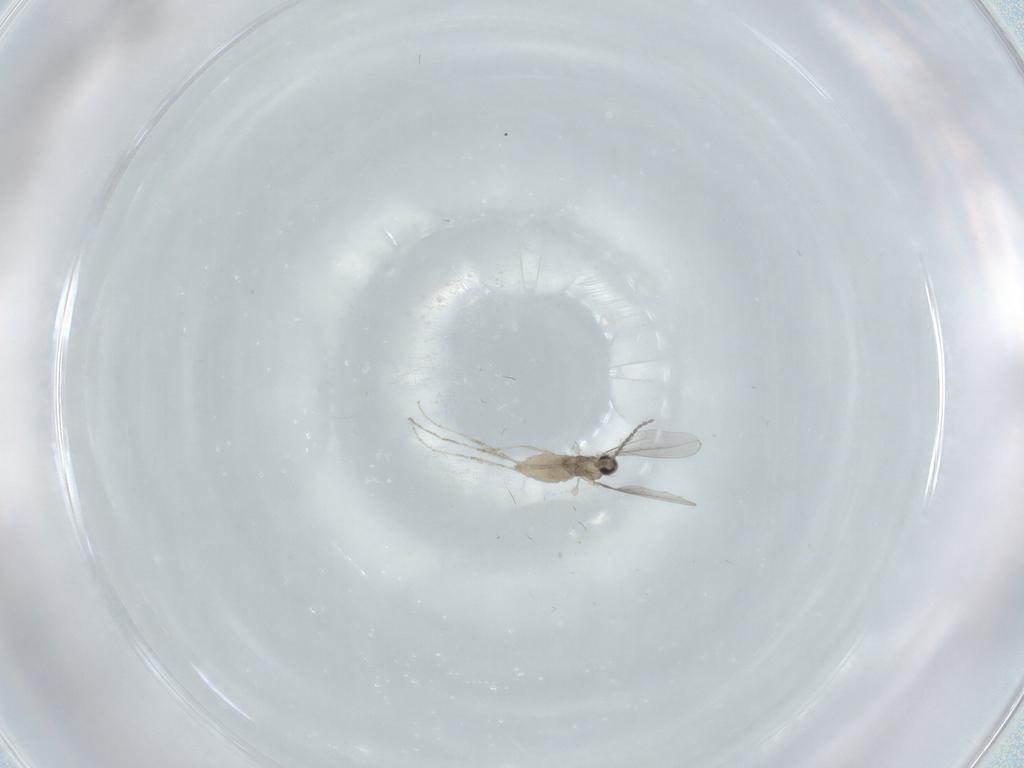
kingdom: Animalia
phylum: Arthropoda
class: Insecta
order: Diptera
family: Cecidomyiidae
